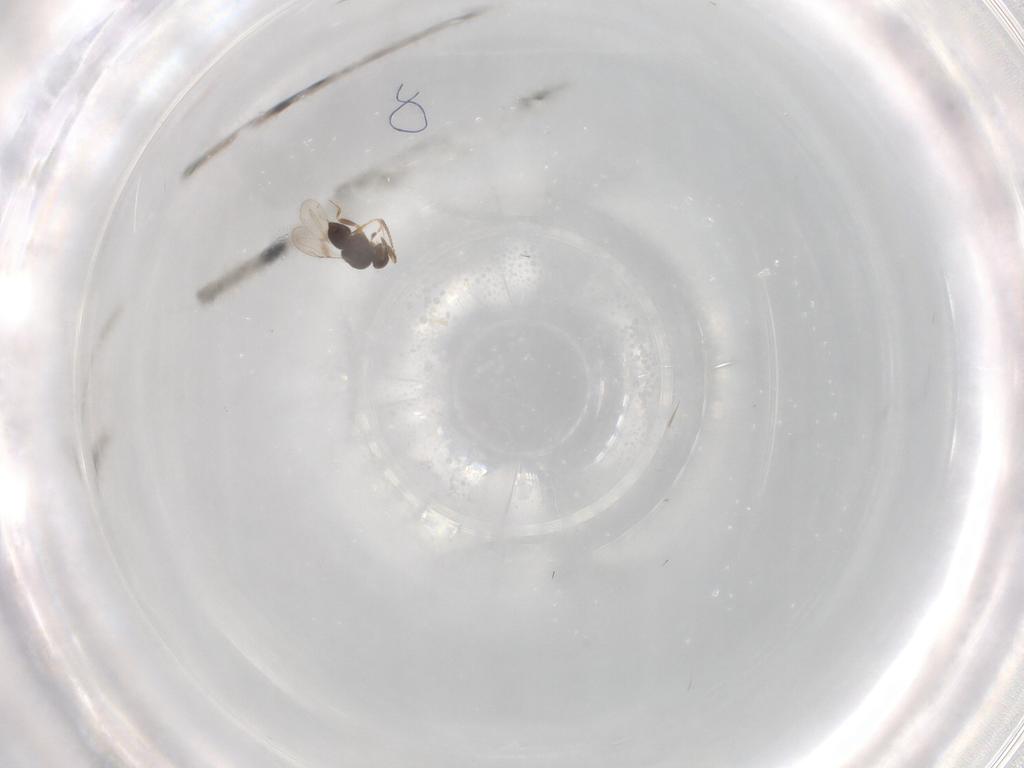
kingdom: Animalia
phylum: Arthropoda
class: Insecta
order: Hymenoptera
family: Ceraphronidae
